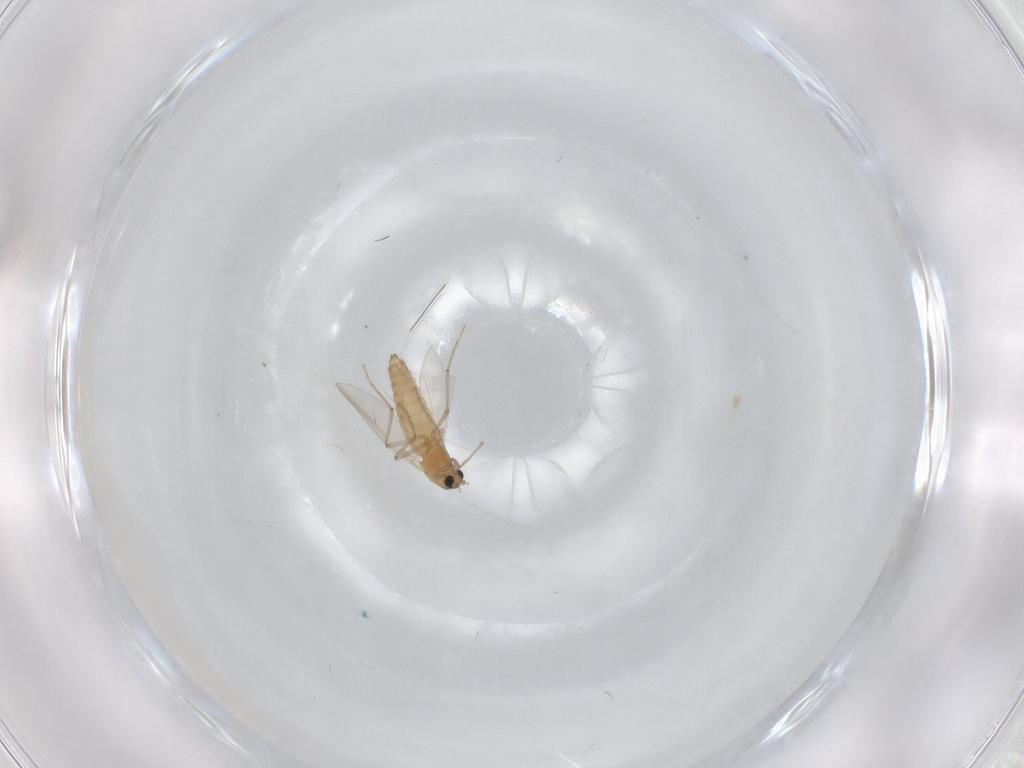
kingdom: Animalia
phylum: Arthropoda
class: Insecta
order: Diptera
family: Chironomidae
